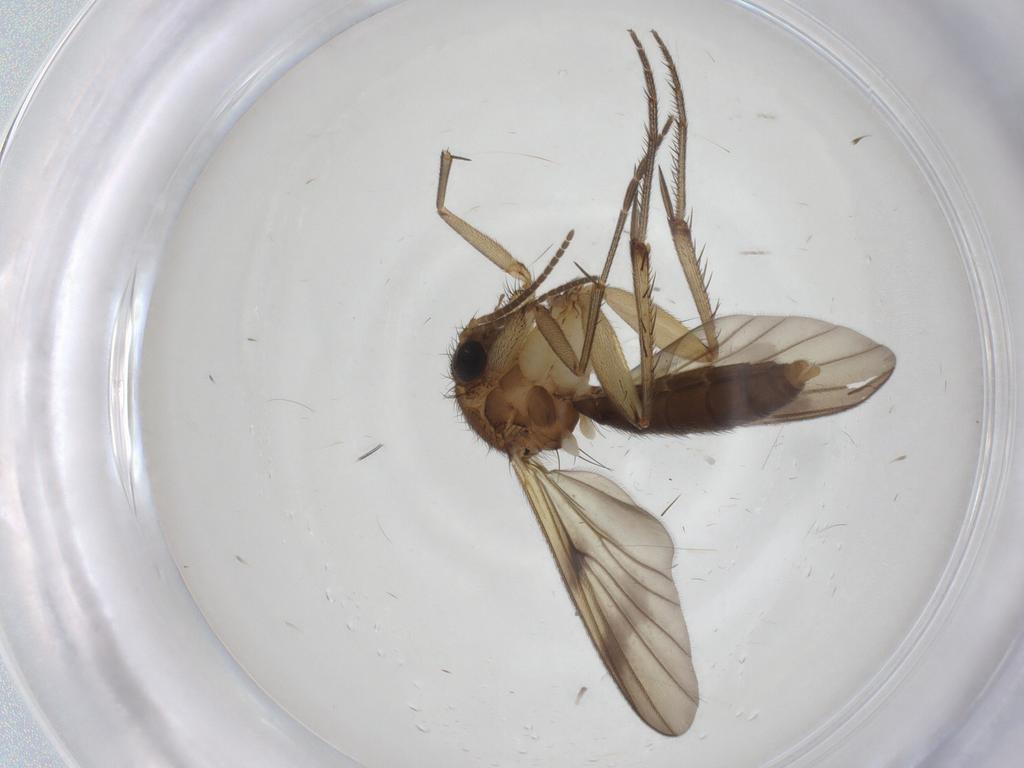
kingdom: Animalia
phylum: Arthropoda
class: Insecta
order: Diptera
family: Mycetophilidae
